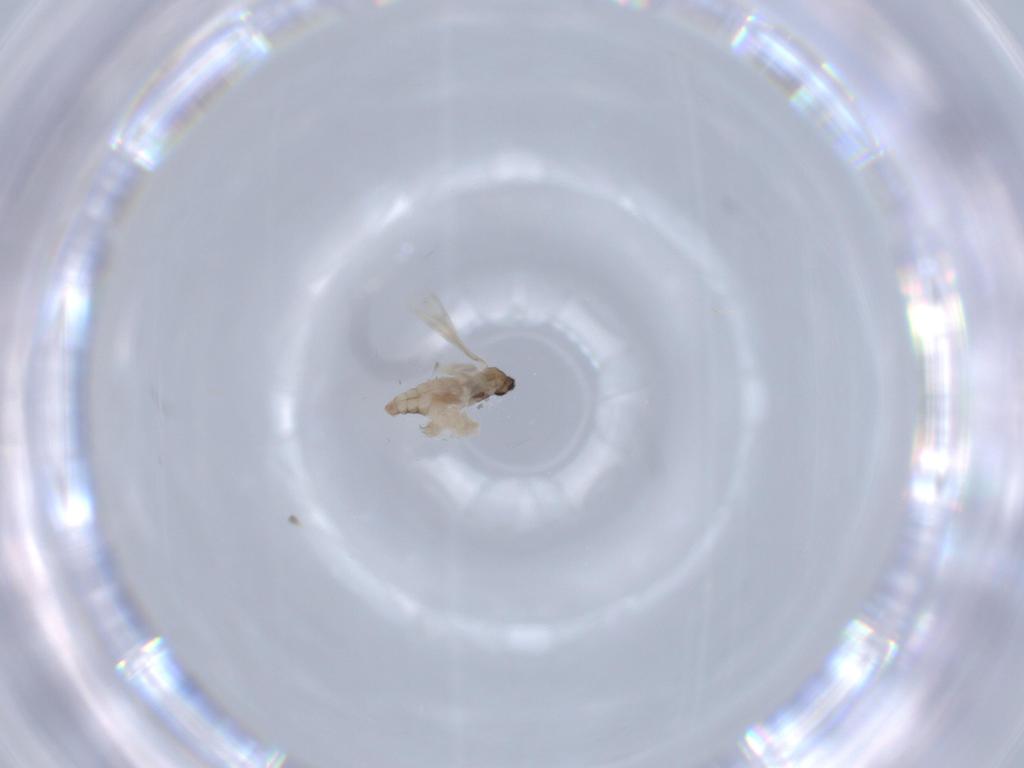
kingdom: Animalia
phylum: Arthropoda
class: Insecta
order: Diptera
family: Cecidomyiidae
